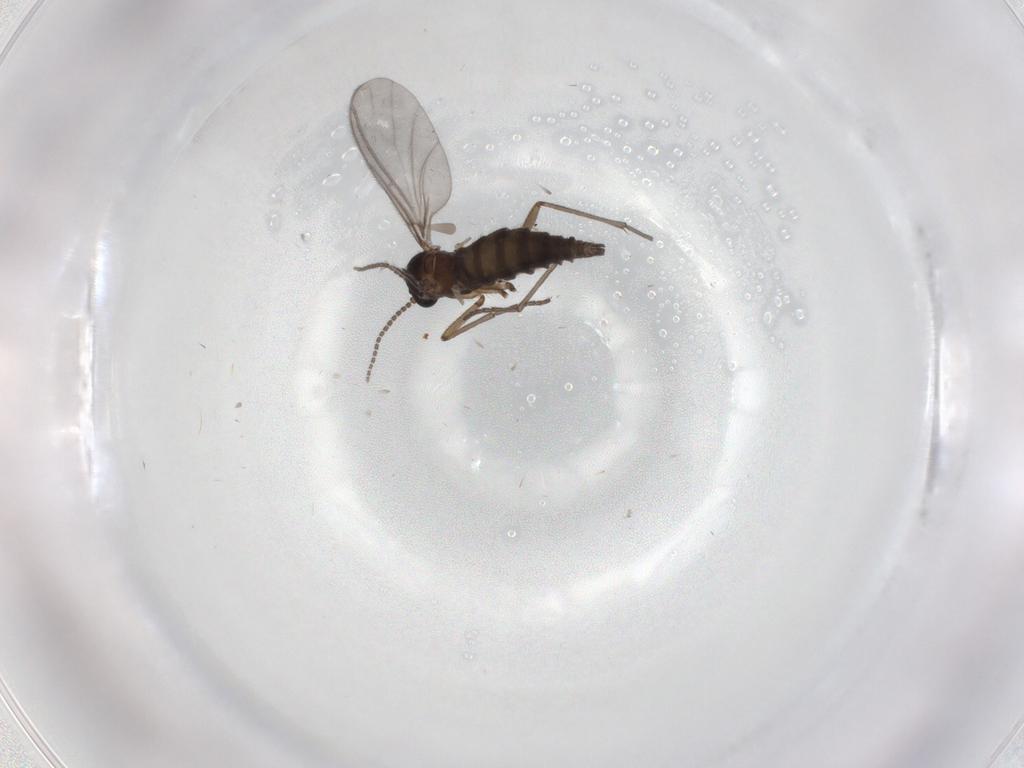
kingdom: Animalia
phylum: Arthropoda
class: Insecta
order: Diptera
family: Sciaridae
